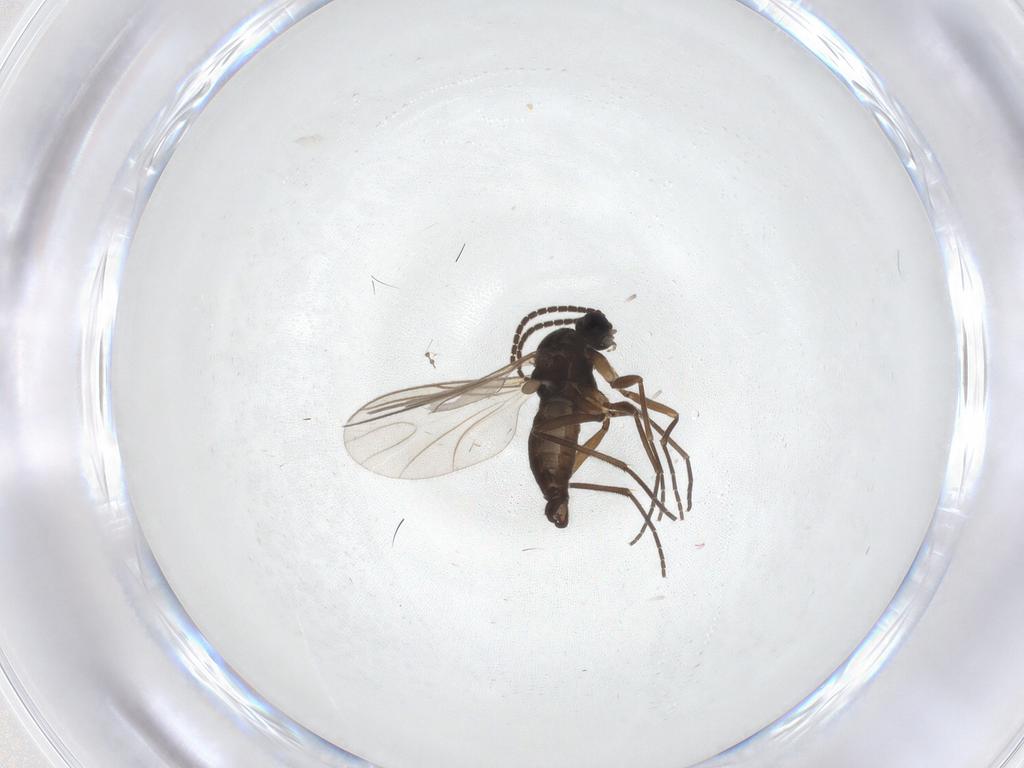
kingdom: Animalia
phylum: Arthropoda
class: Insecta
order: Diptera
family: Sciaridae
